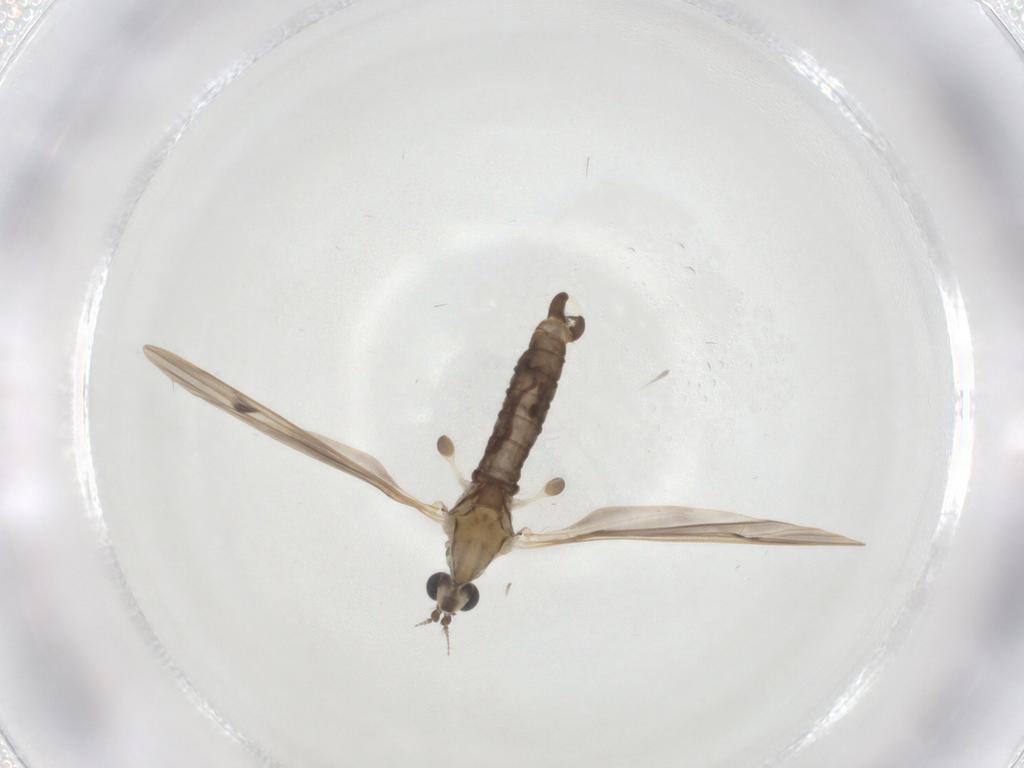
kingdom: Animalia
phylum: Arthropoda
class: Insecta
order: Diptera
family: Limoniidae
